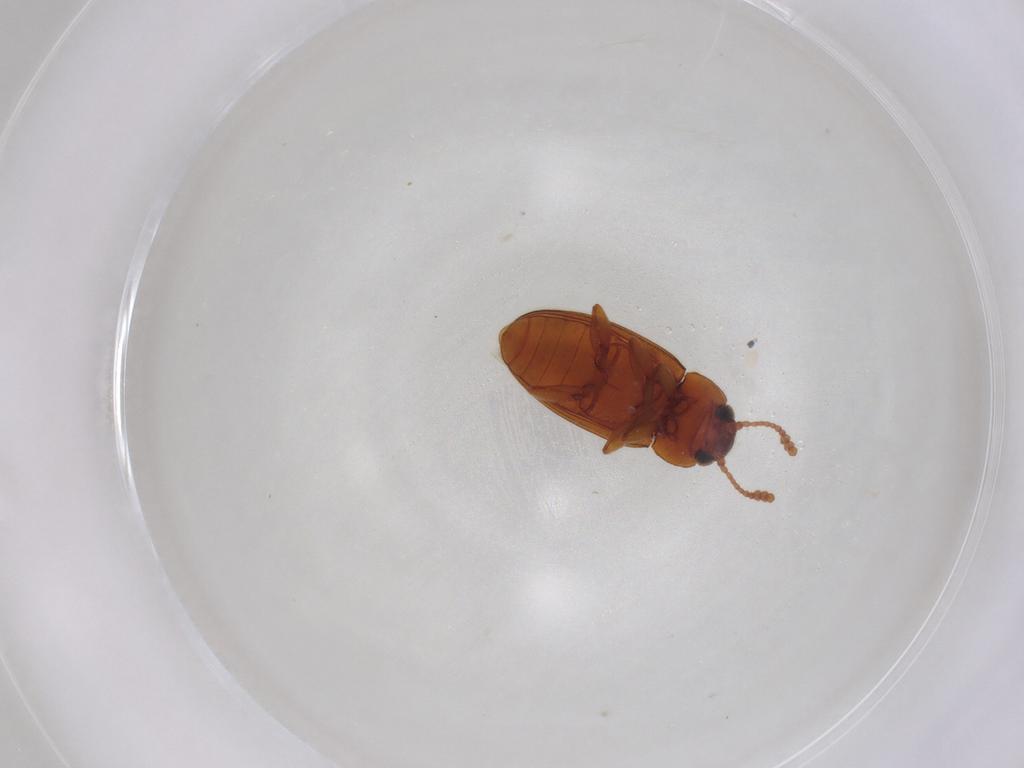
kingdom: Animalia
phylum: Arthropoda
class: Insecta
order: Coleoptera
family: Erotylidae
